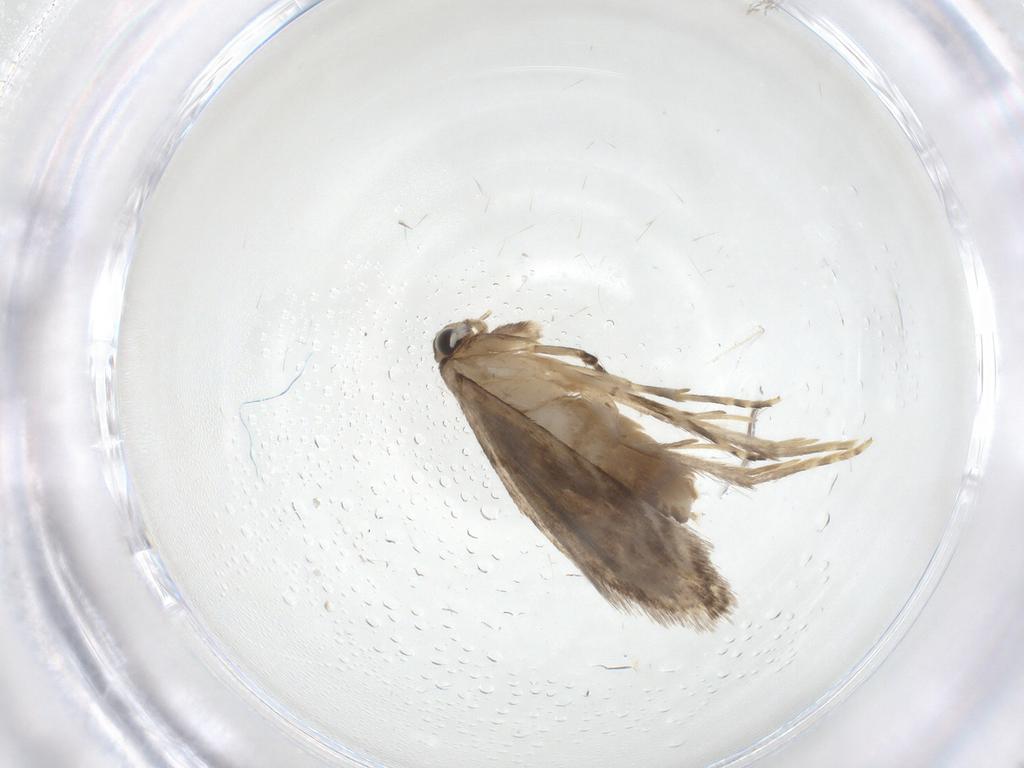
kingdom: Animalia
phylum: Arthropoda
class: Insecta
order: Lepidoptera
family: Tineidae
